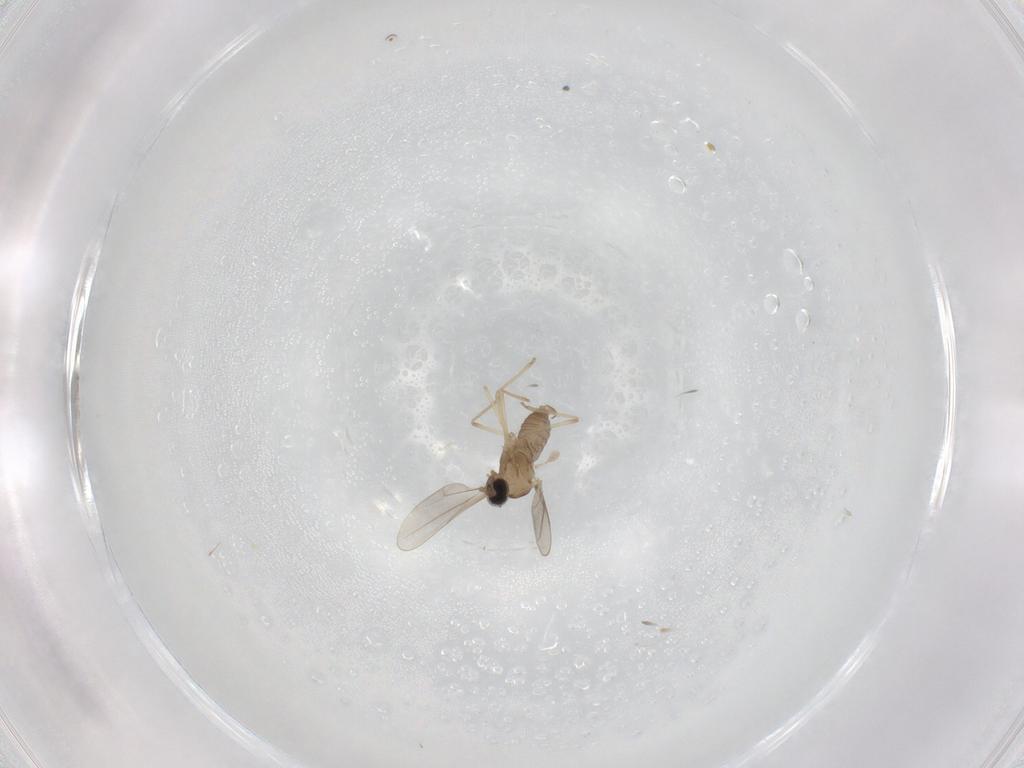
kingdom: Animalia
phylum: Arthropoda
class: Insecta
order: Diptera
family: Cecidomyiidae
